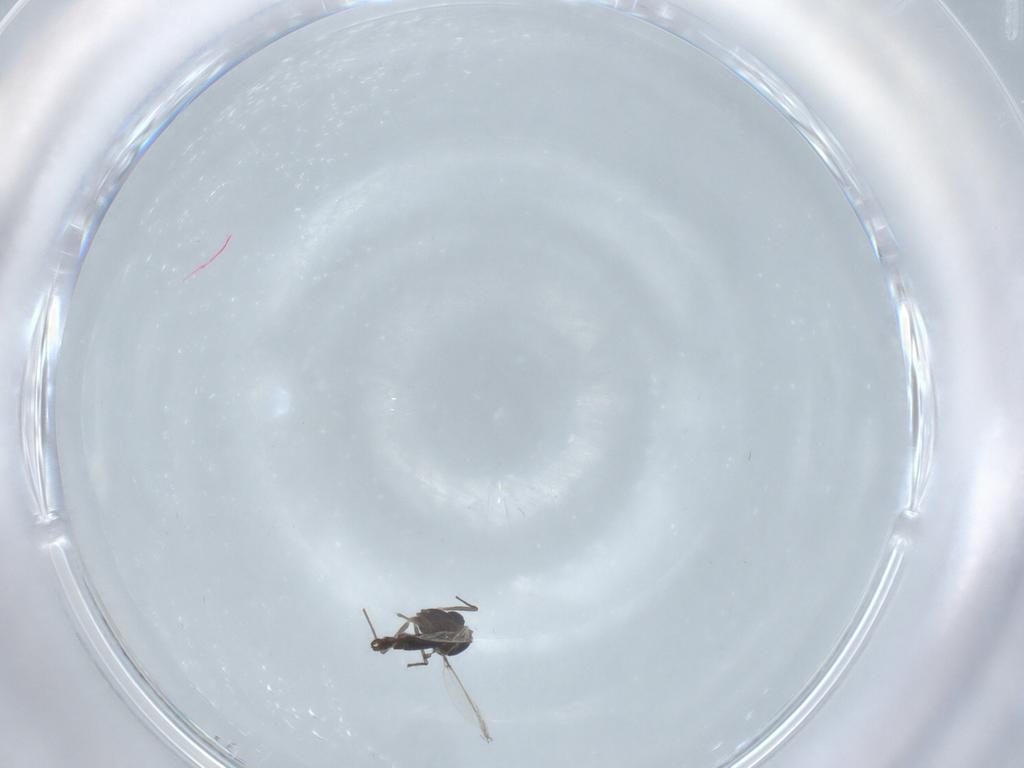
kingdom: Animalia
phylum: Arthropoda
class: Insecta
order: Diptera
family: Chironomidae
